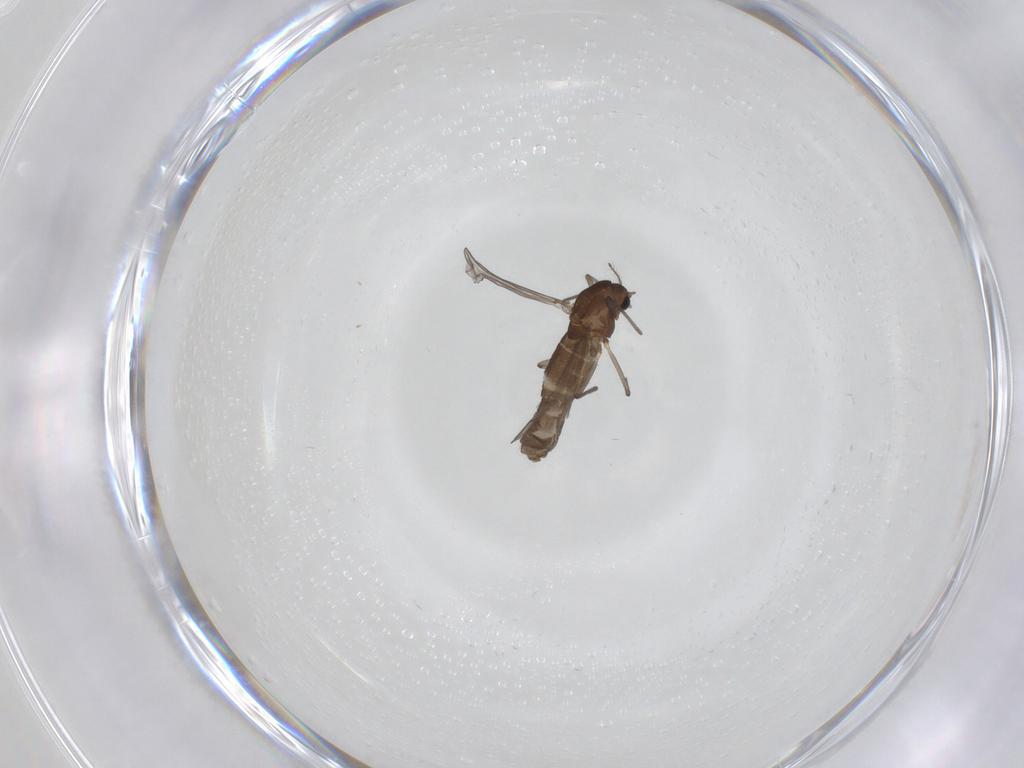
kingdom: Animalia
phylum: Arthropoda
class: Insecta
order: Diptera
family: Chironomidae
